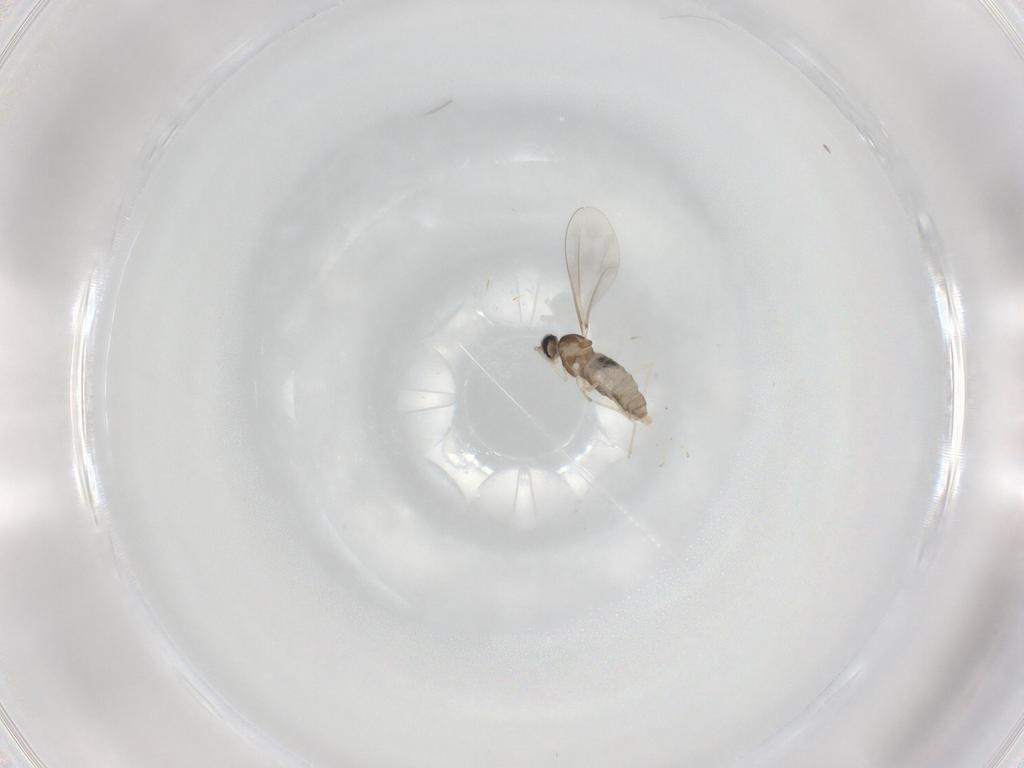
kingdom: Animalia
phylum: Arthropoda
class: Insecta
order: Diptera
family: Cecidomyiidae
